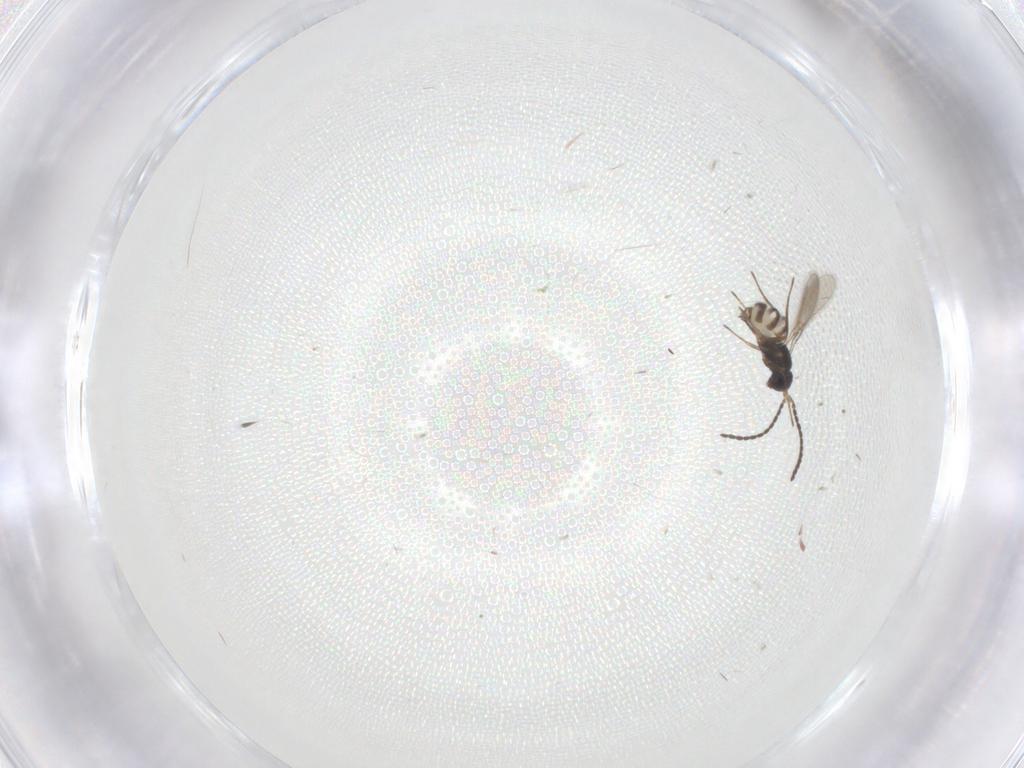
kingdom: Animalia
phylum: Arthropoda
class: Insecta
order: Diptera
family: Cecidomyiidae
